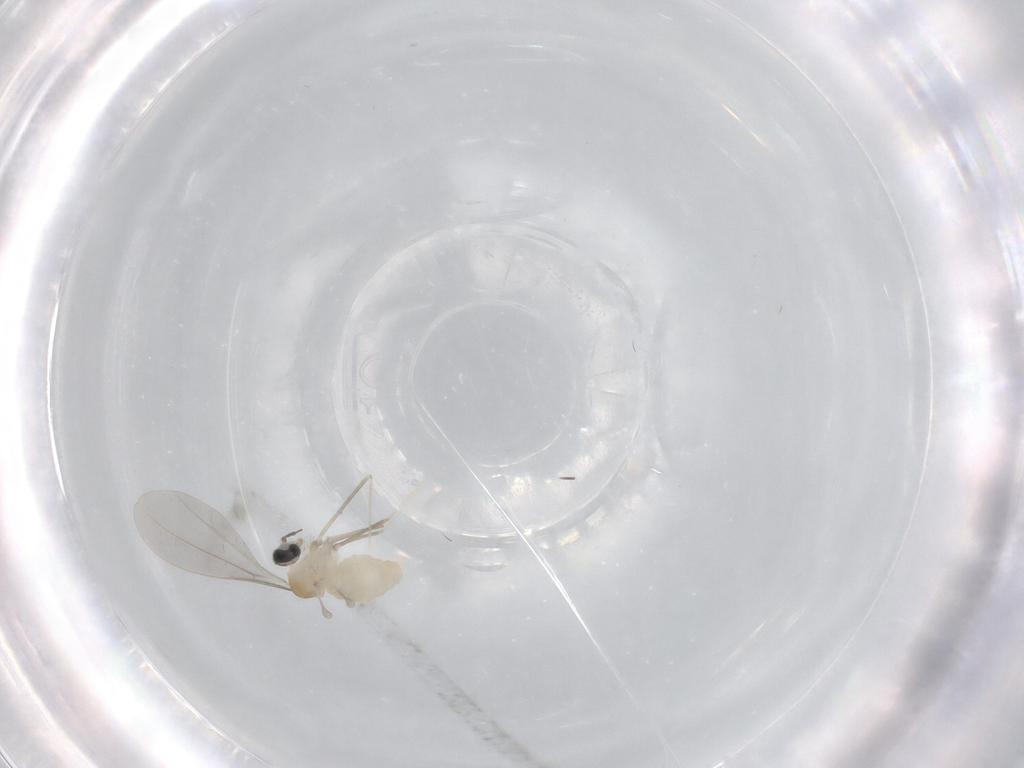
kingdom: Animalia
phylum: Arthropoda
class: Insecta
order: Diptera
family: Cecidomyiidae
